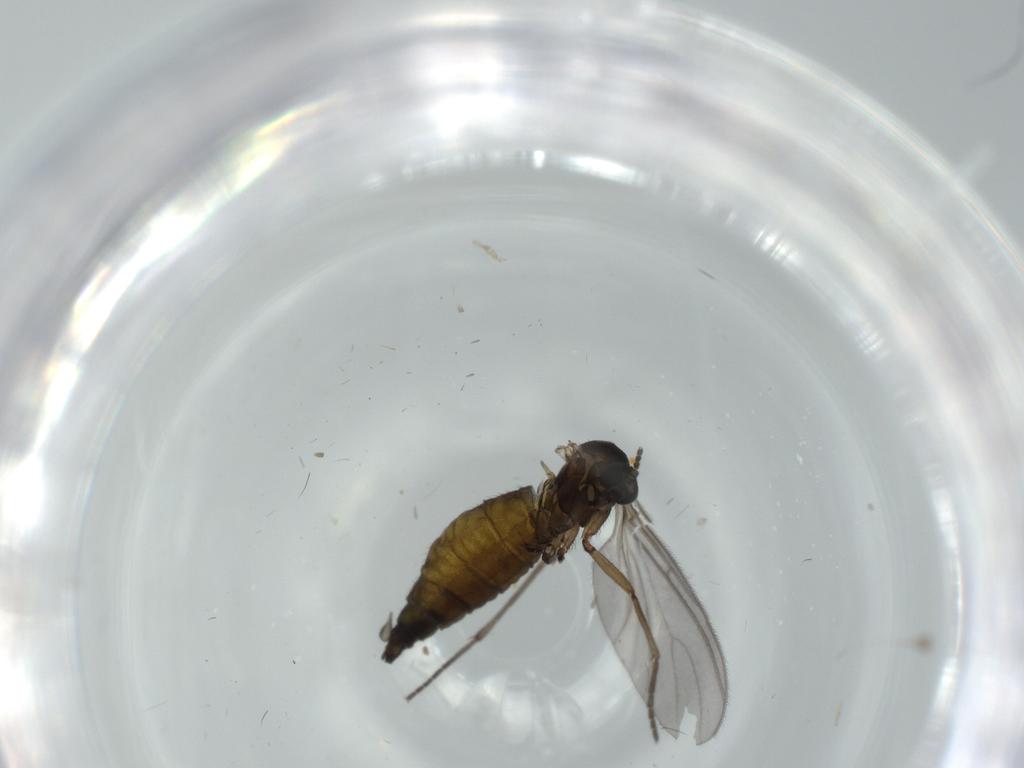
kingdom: Animalia
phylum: Arthropoda
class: Insecta
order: Diptera
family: Sciaridae
